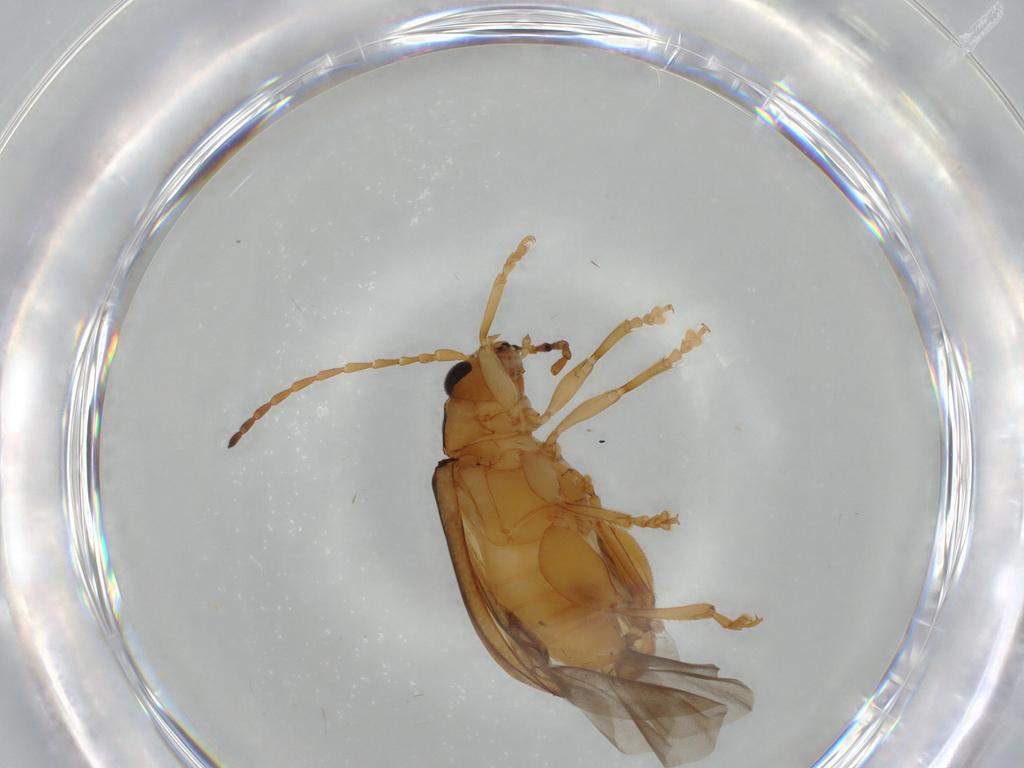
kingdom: Animalia
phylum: Arthropoda
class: Insecta
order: Coleoptera
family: Chrysomelidae
